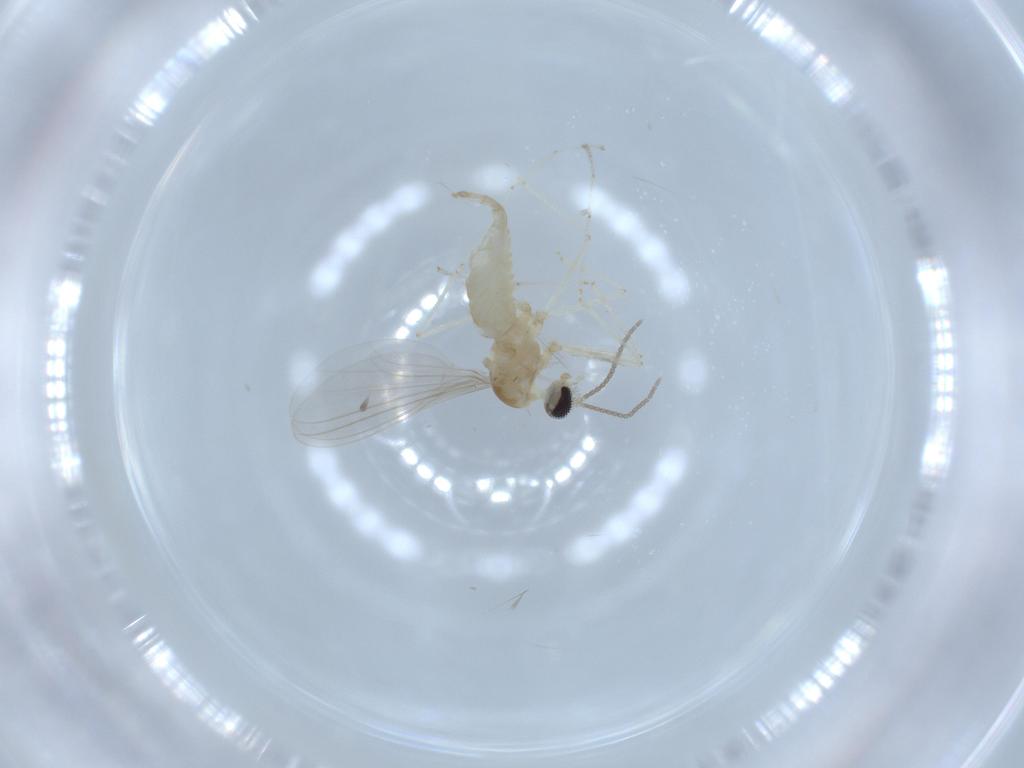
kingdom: Animalia
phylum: Arthropoda
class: Insecta
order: Diptera
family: Cecidomyiidae
